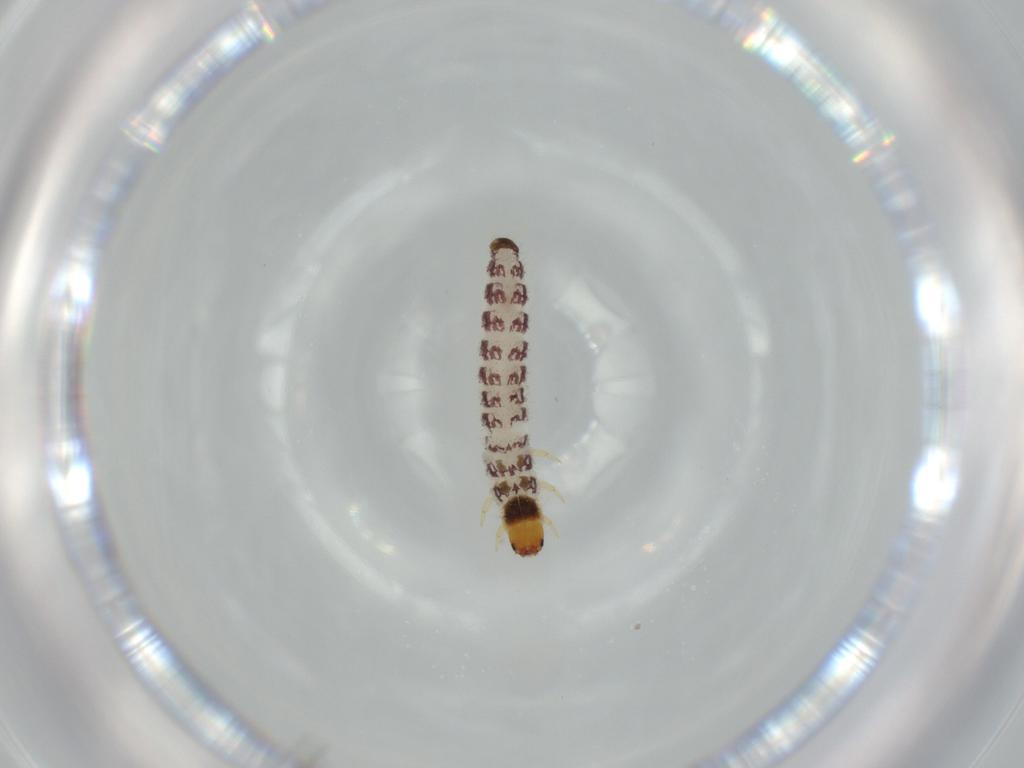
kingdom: Animalia
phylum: Arthropoda
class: Insecta
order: Coleoptera
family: Cleridae
